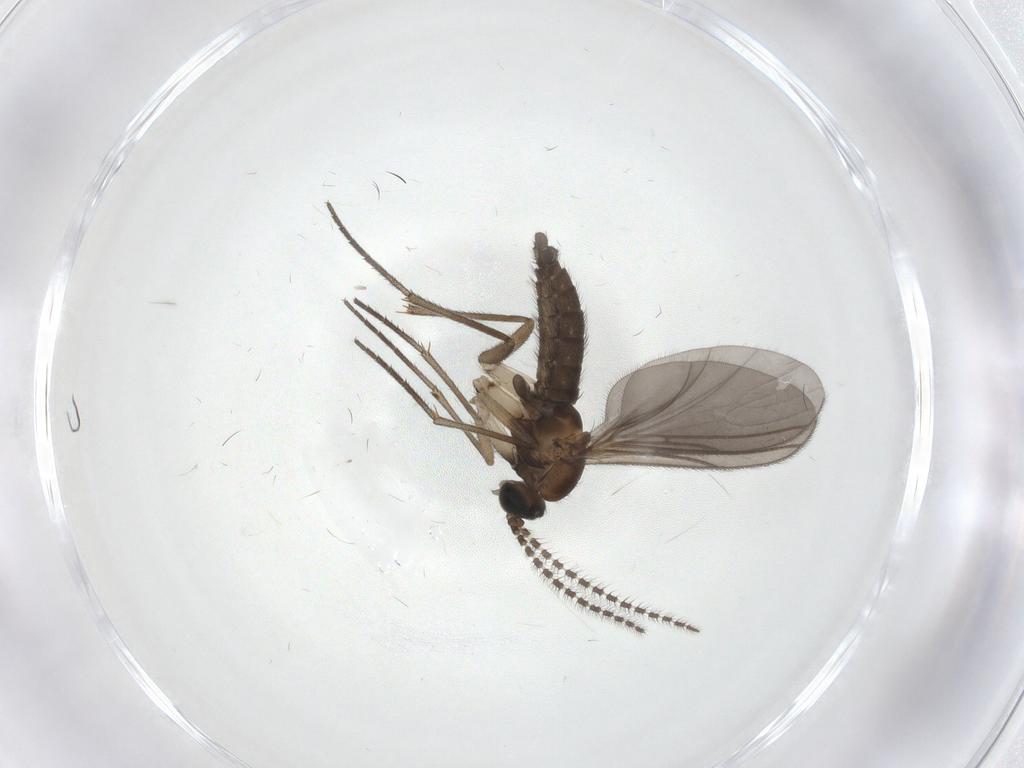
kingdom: Animalia
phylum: Arthropoda
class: Insecta
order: Diptera
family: Sciaridae
